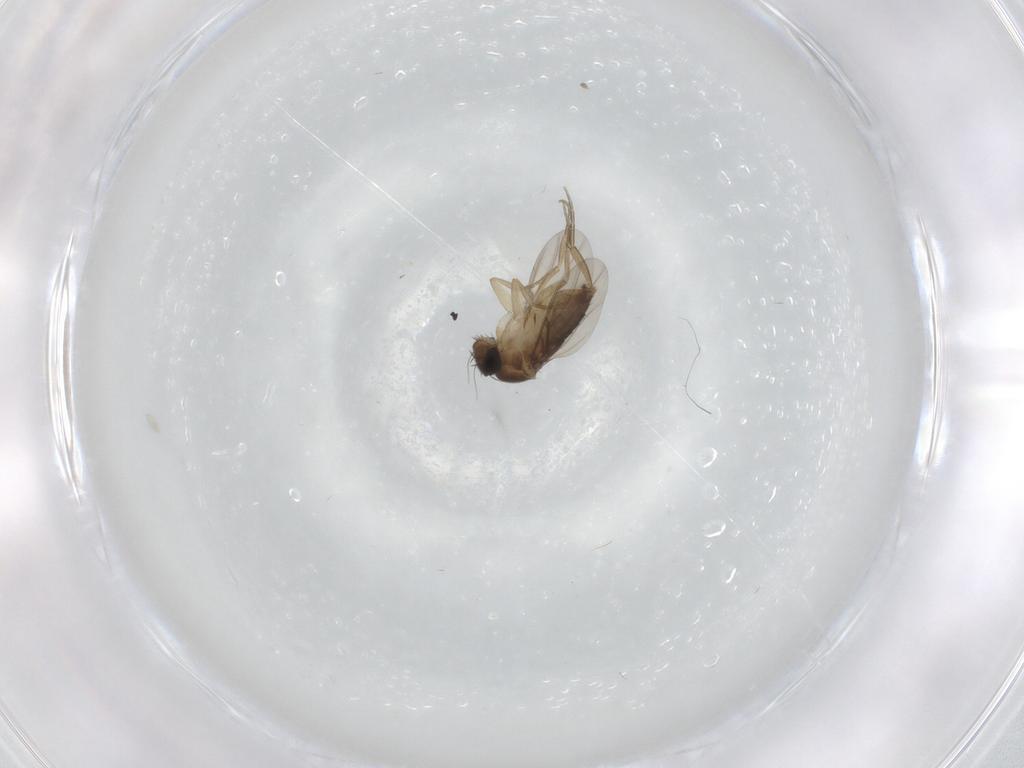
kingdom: Animalia
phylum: Arthropoda
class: Insecta
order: Diptera
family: Phoridae
